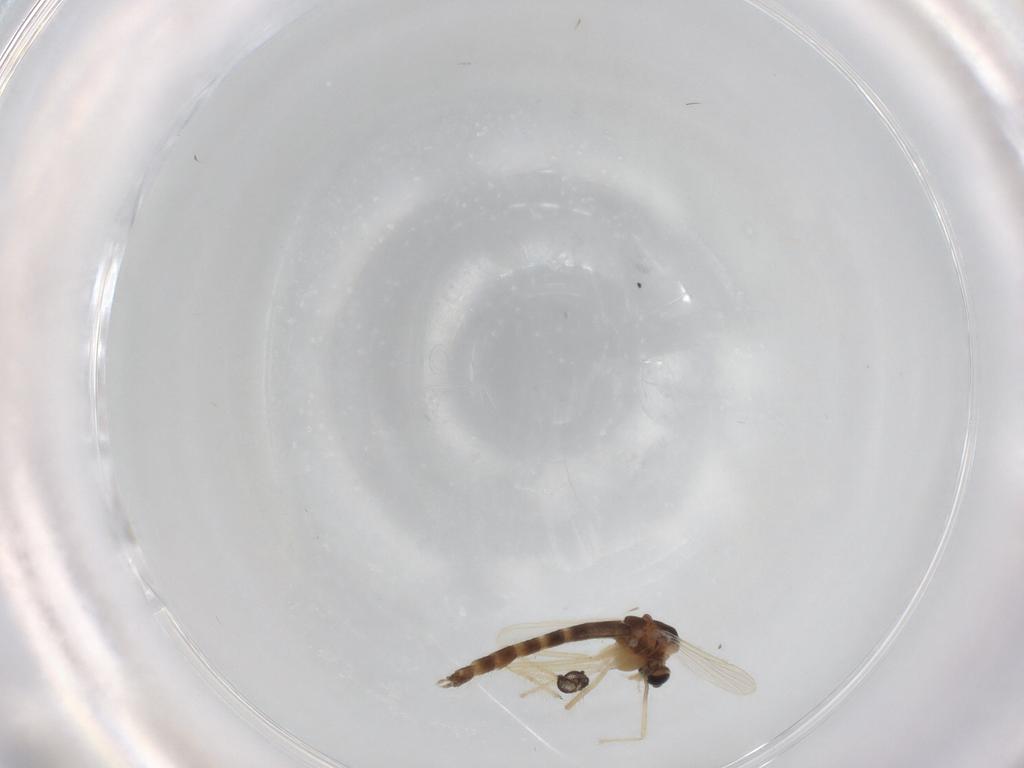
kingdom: Animalia
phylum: Arthropoda
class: Insecta
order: Diptera
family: Chironomidae
